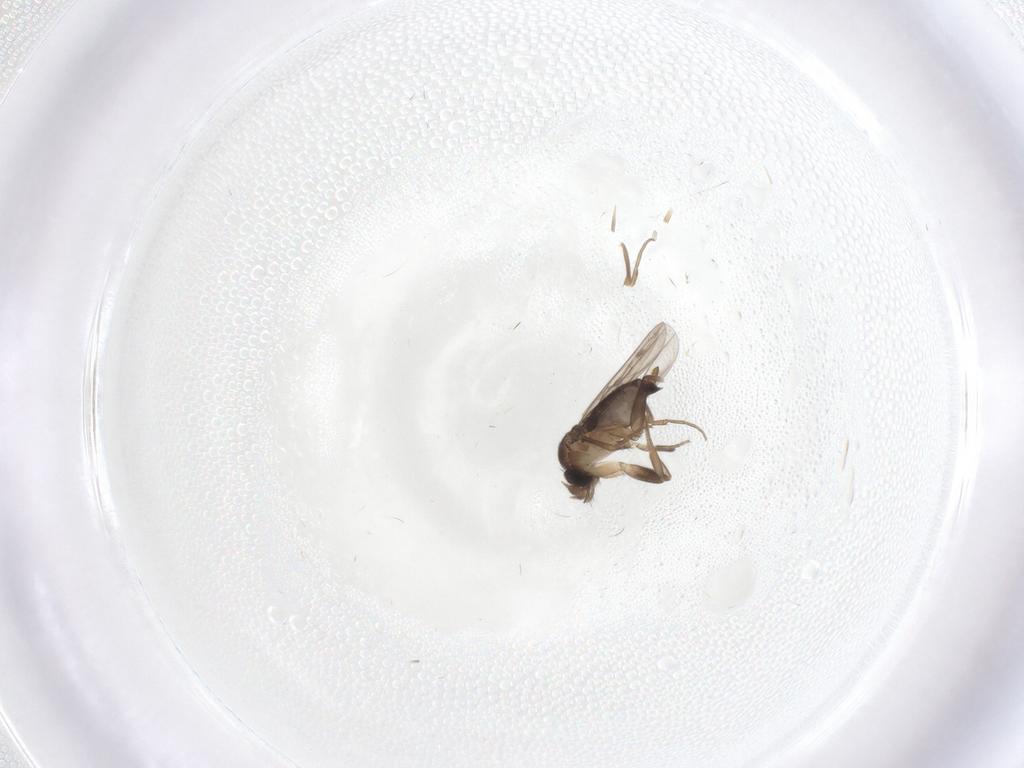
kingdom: Animalia
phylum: Arthropoda
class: Insecta
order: Diptera
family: Phoridae
